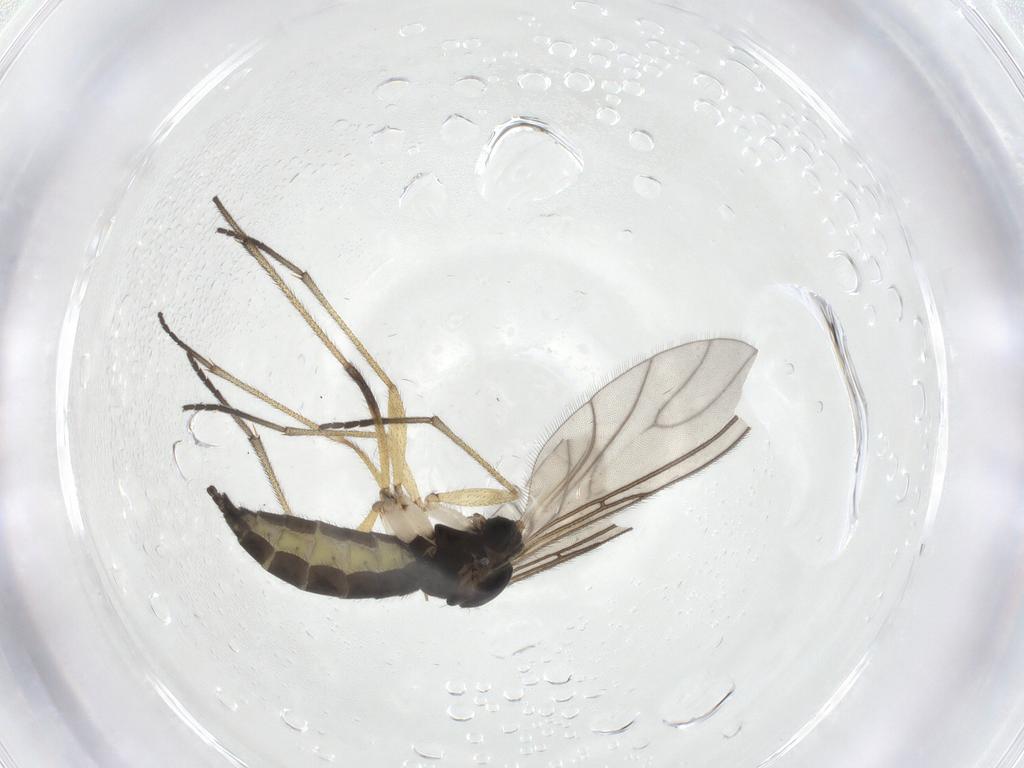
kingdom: Animalia
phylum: Arthropoda
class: Insecta
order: Diptera
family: Sciaridae
